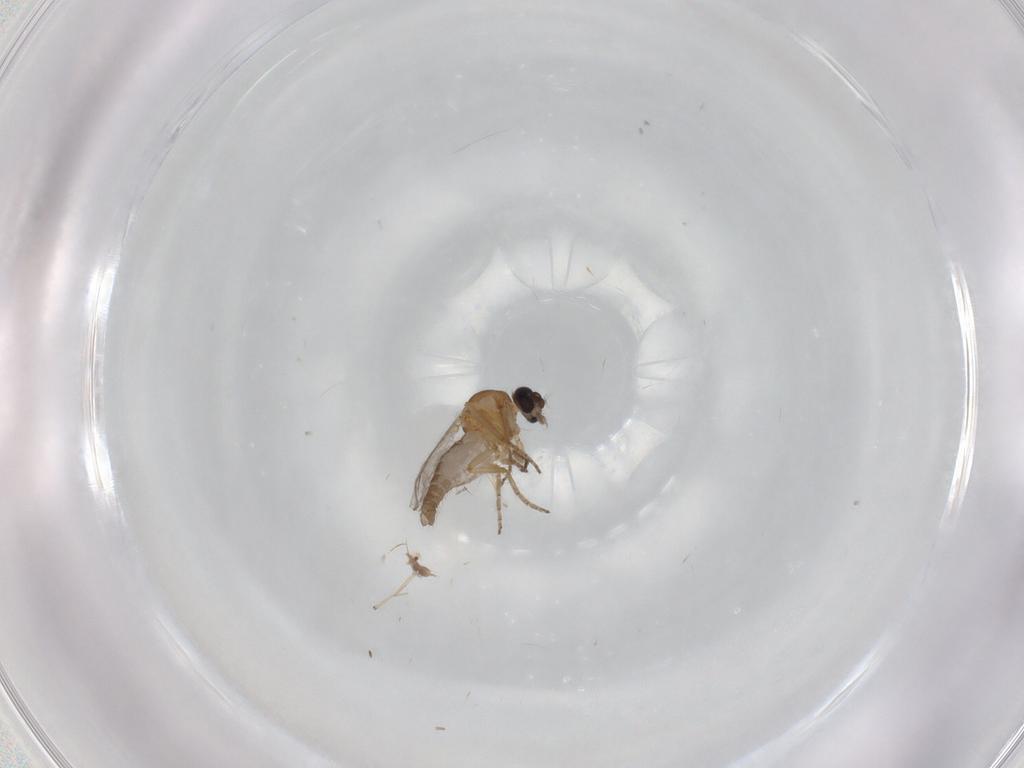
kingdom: Animalia
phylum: Arthropoda
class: Insecta
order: Diptera
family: Ceratopogonidae
